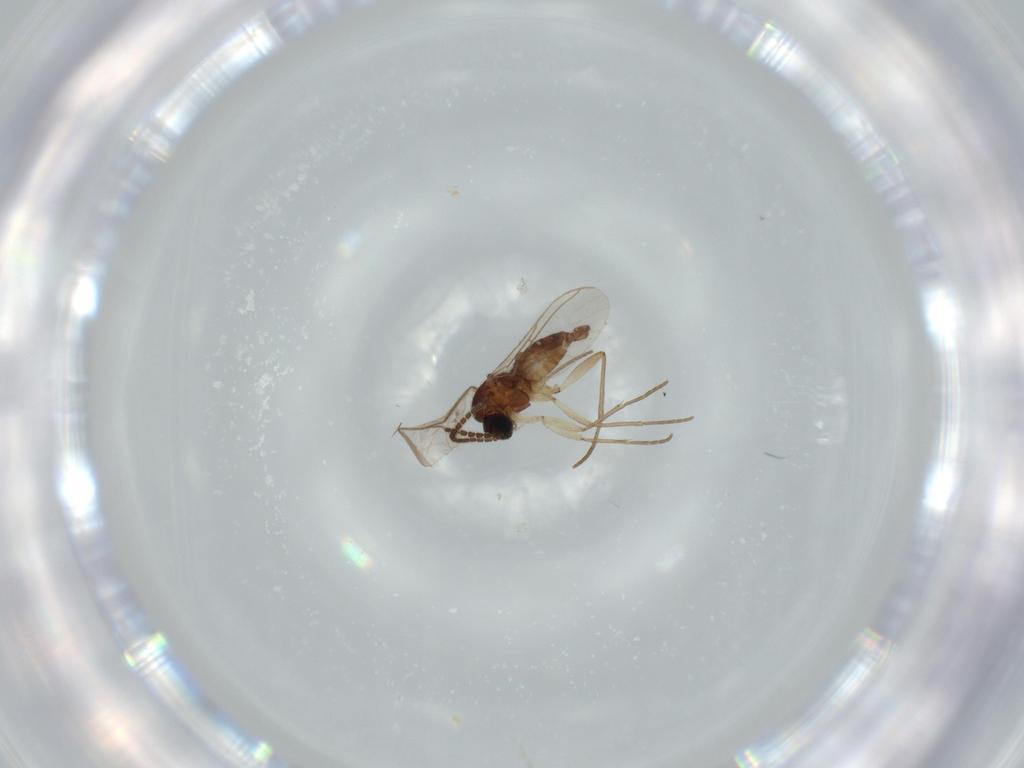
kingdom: Animalia
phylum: Arthropoda
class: Insecta
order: Diptera
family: Sciaridae
